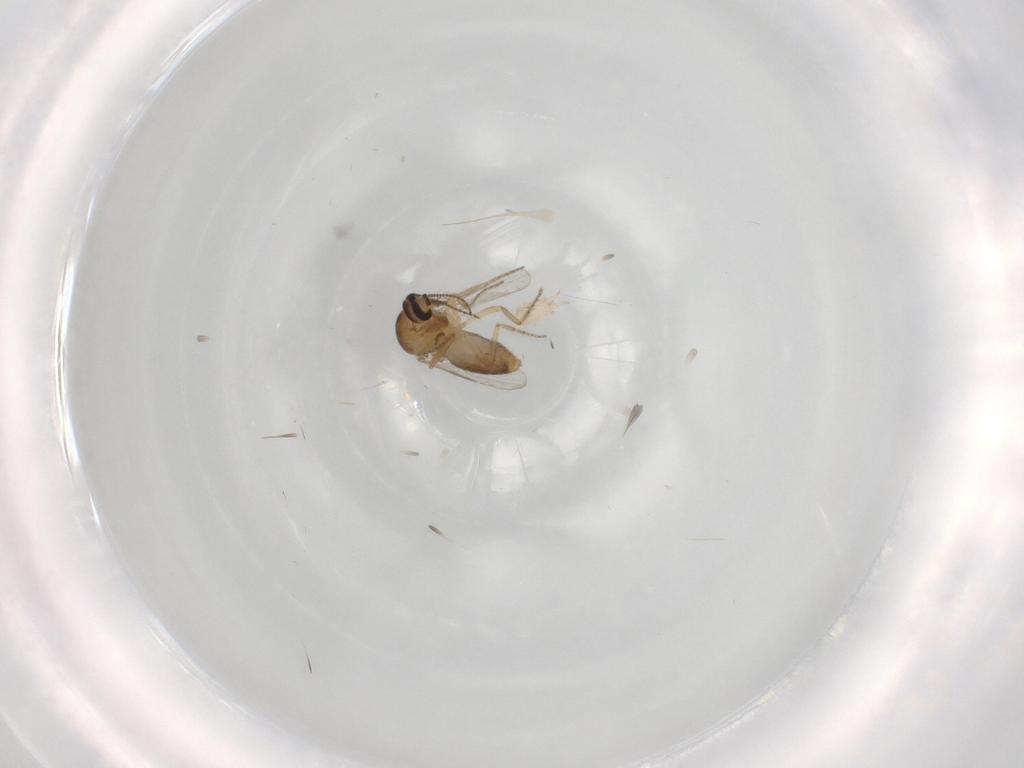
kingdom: Animalia
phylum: Arthropoda
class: Insecta
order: Diptera
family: Ceratopogonidae
